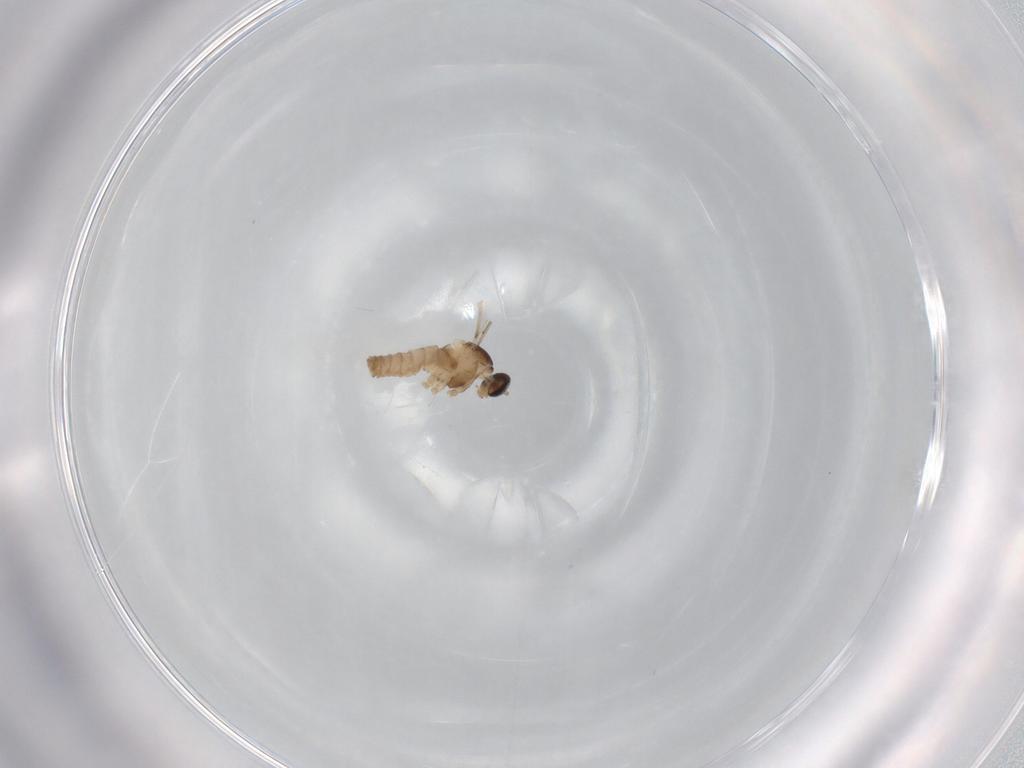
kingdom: Animalia
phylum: Arthropoda
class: Insecta
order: Diptera
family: Cecidomyiidae
